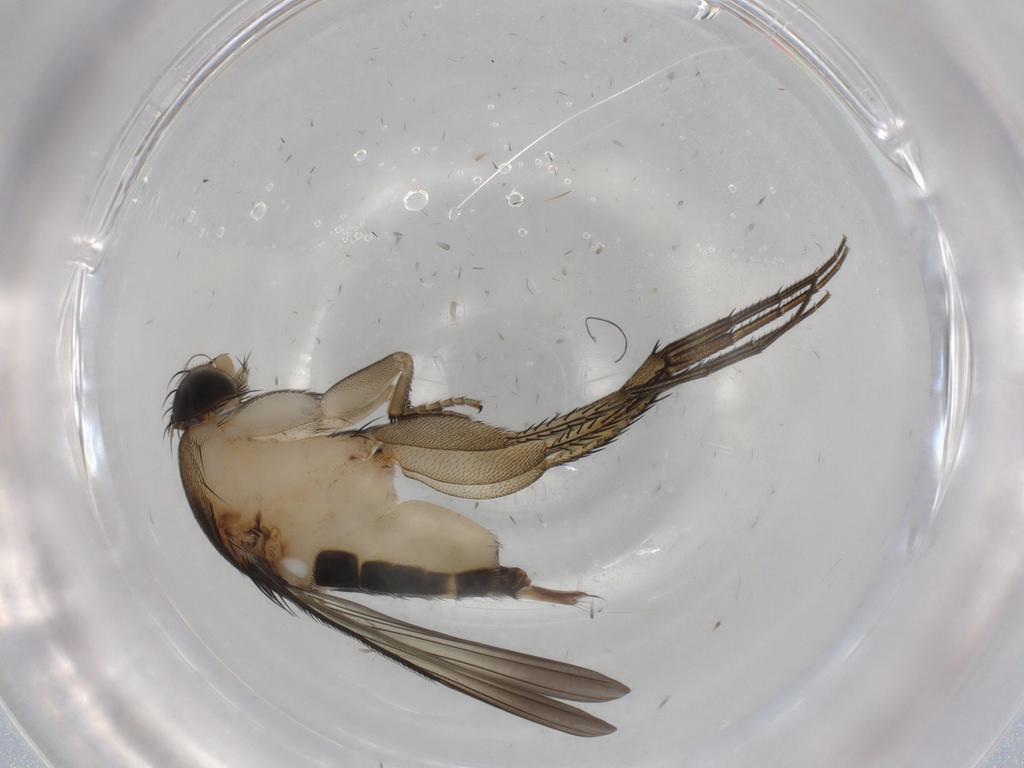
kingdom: Animalia
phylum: Arthropoda
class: Insecta
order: Diptera
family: Phoridae
